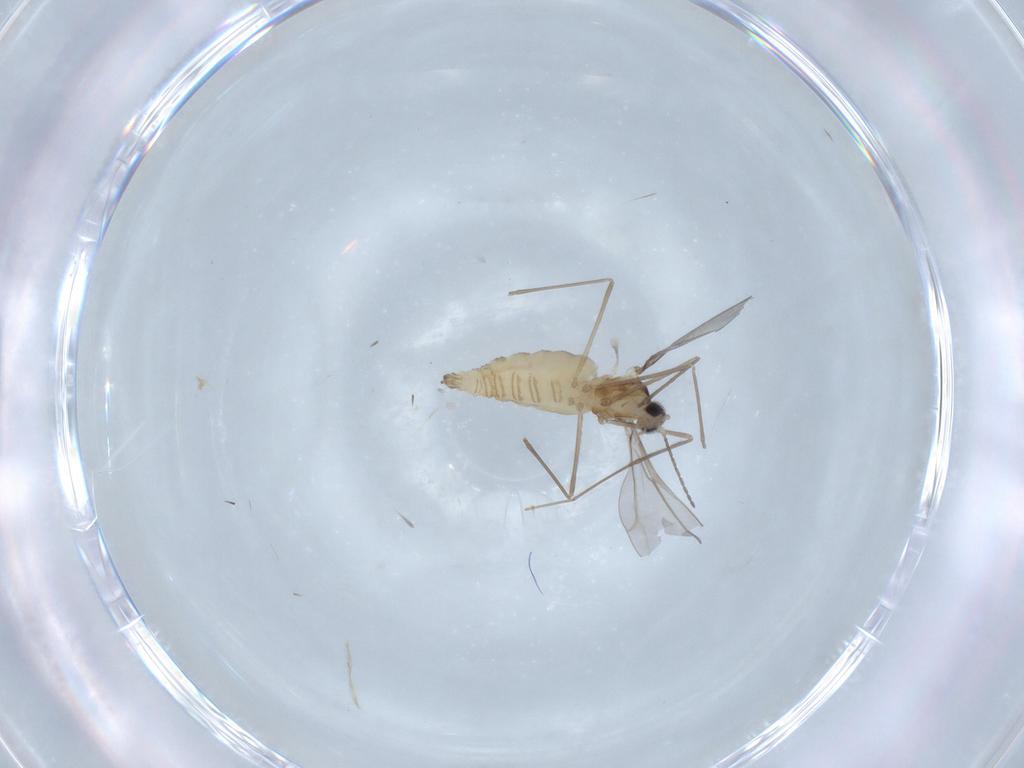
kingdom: Animalia
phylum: Arthropoda
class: Insecta
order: Diptera
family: Cecidomyiidae
